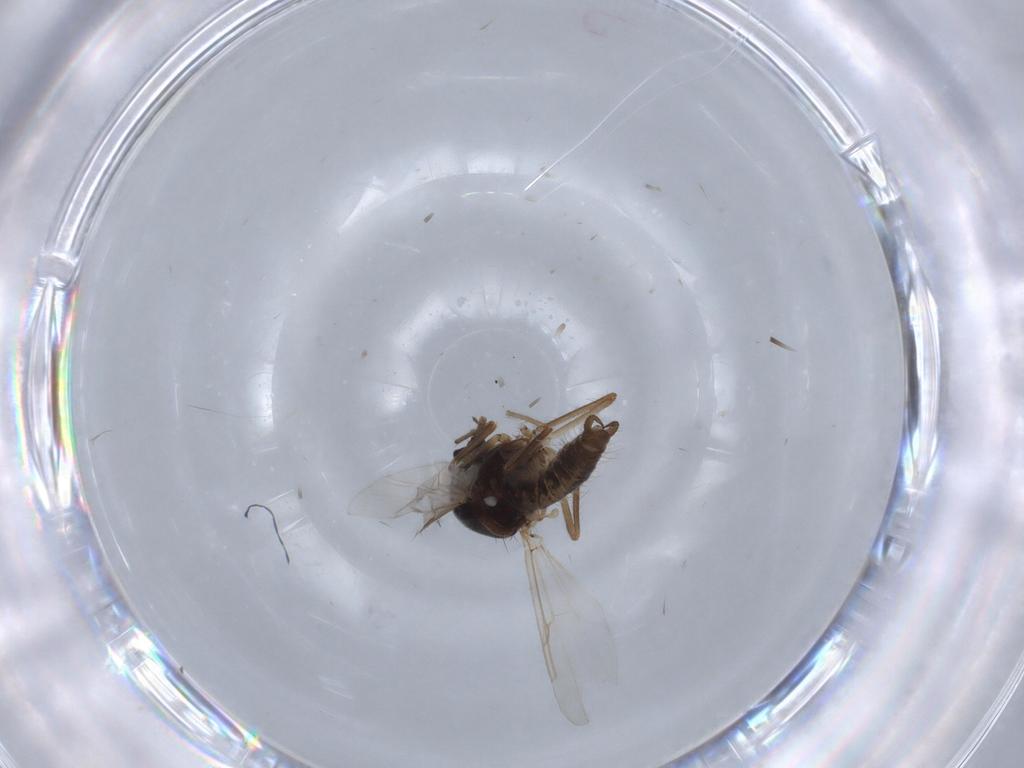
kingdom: Animalia
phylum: Arthropoda
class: Insecta
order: Diptera
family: Ceratopogonidae
